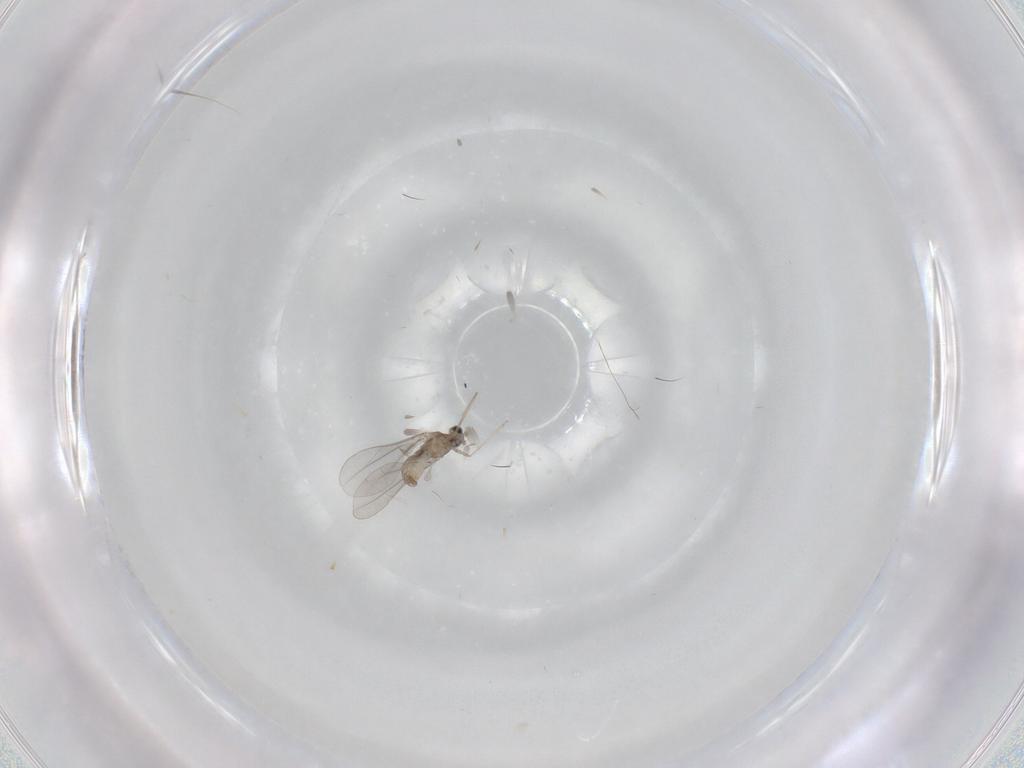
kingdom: Animalia
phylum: Arthropoda
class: Insecta
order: Diptera
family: Cecidomyiidae
